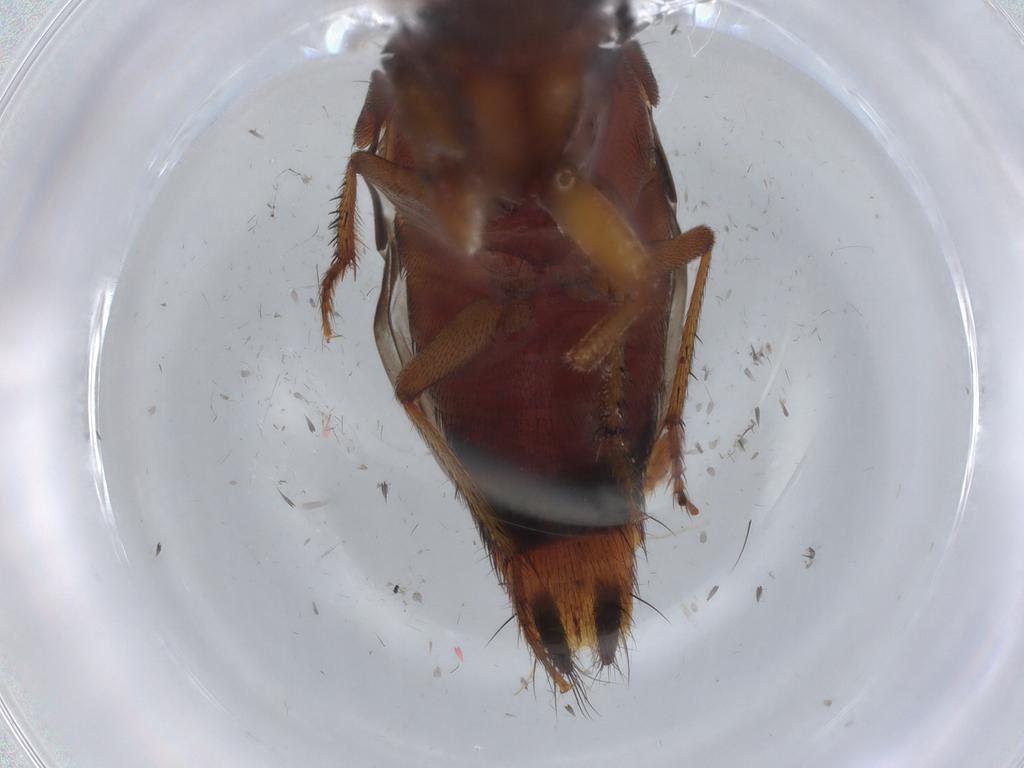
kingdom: Animalia
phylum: Arthropoda
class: Insecta
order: Coleoptera
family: Staphylinidae
